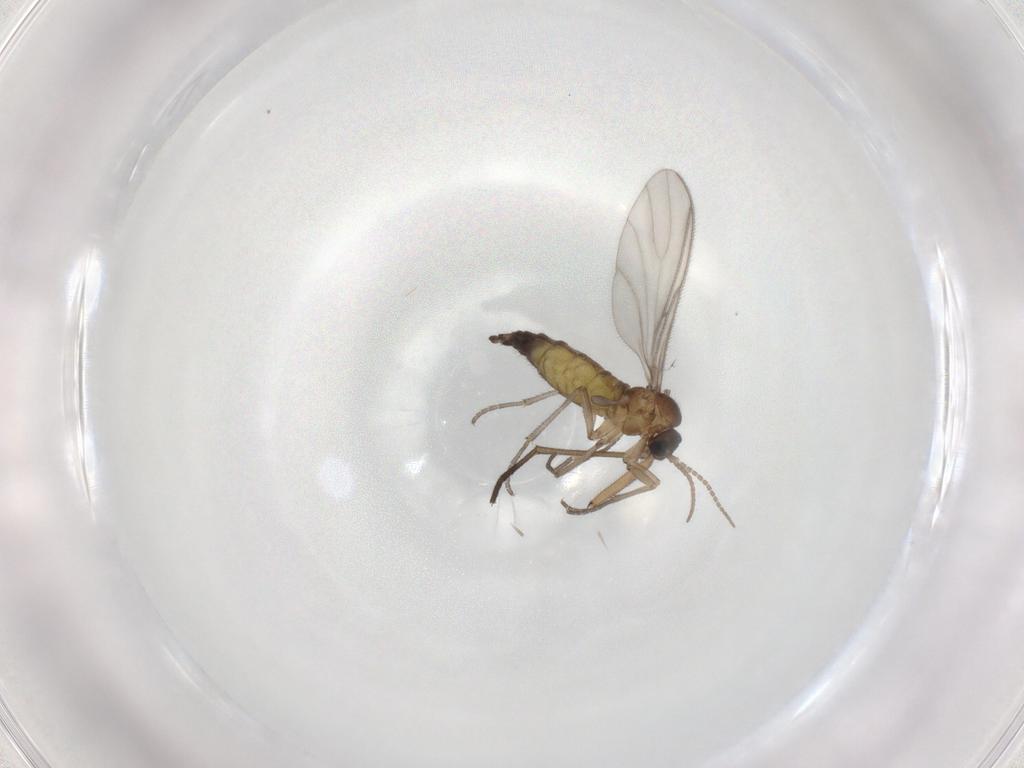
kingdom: Animalia
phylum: Arthropoda
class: Insecta
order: Diptera
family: Sciaridae
